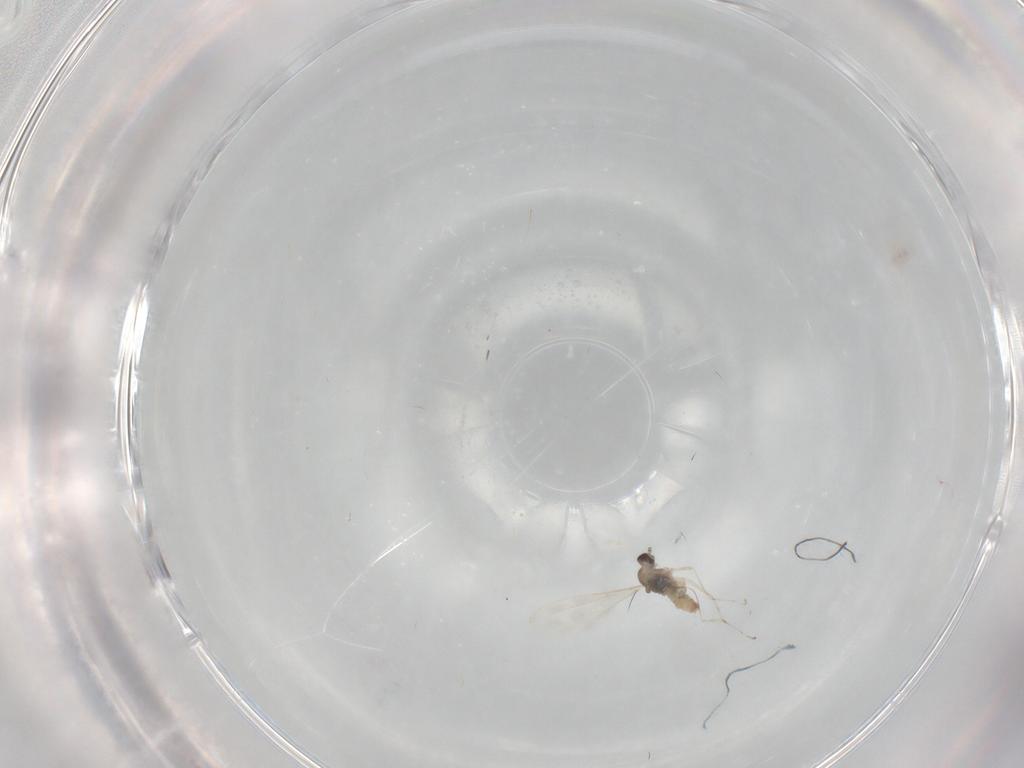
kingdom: Animalia
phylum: Arthropoda
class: Insecta
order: Diptera
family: Cecidomyiidae
